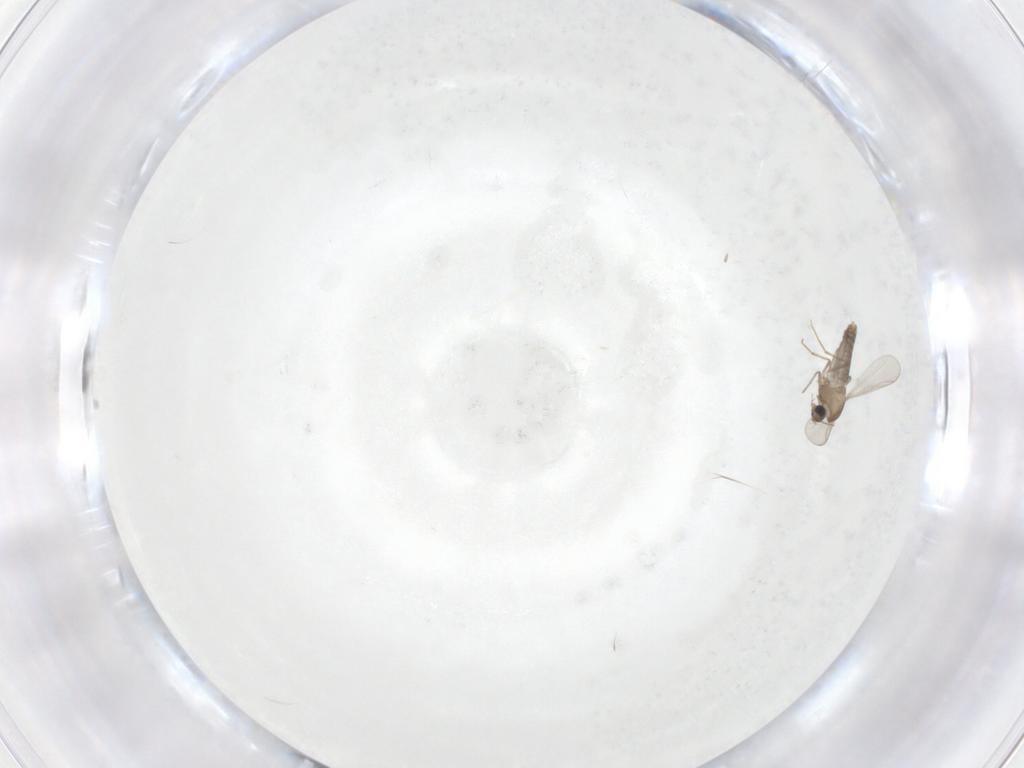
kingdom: Animalia
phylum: Arthropoda
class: Insecta
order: Diptera
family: Chironomidae
